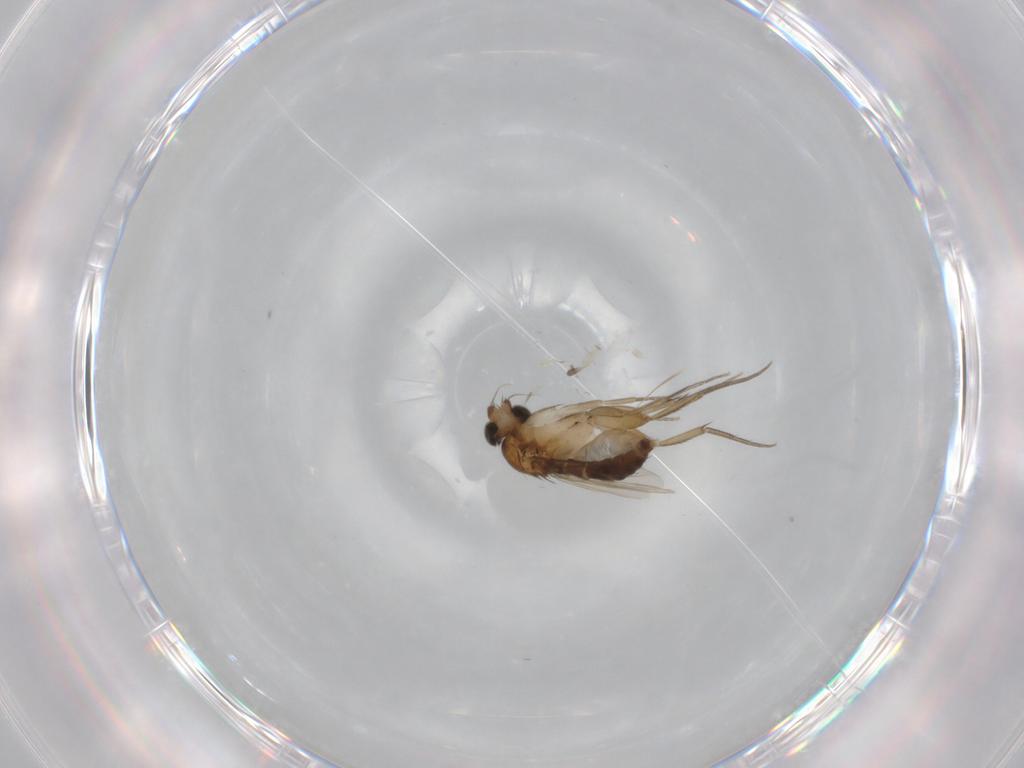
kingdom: Animalia
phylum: Arthropoda
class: Insecta
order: Diptera
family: Phoridae
